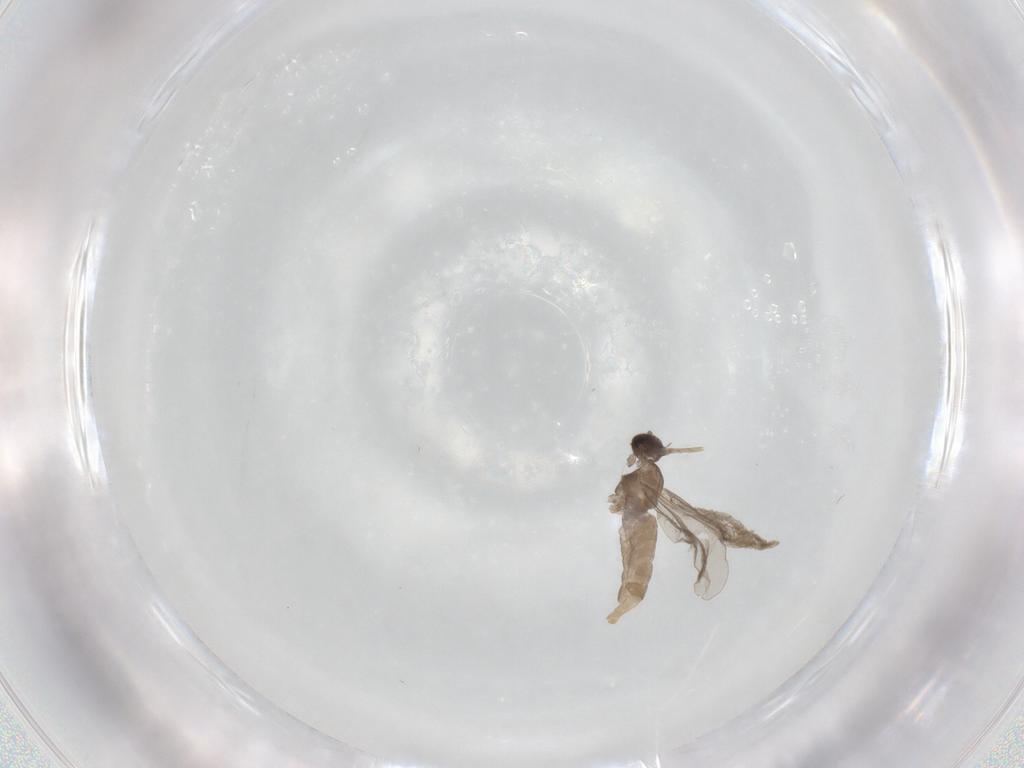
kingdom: Animalia
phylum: Arthropoda
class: Insecta
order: Diptera
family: Cecidomyiidae
